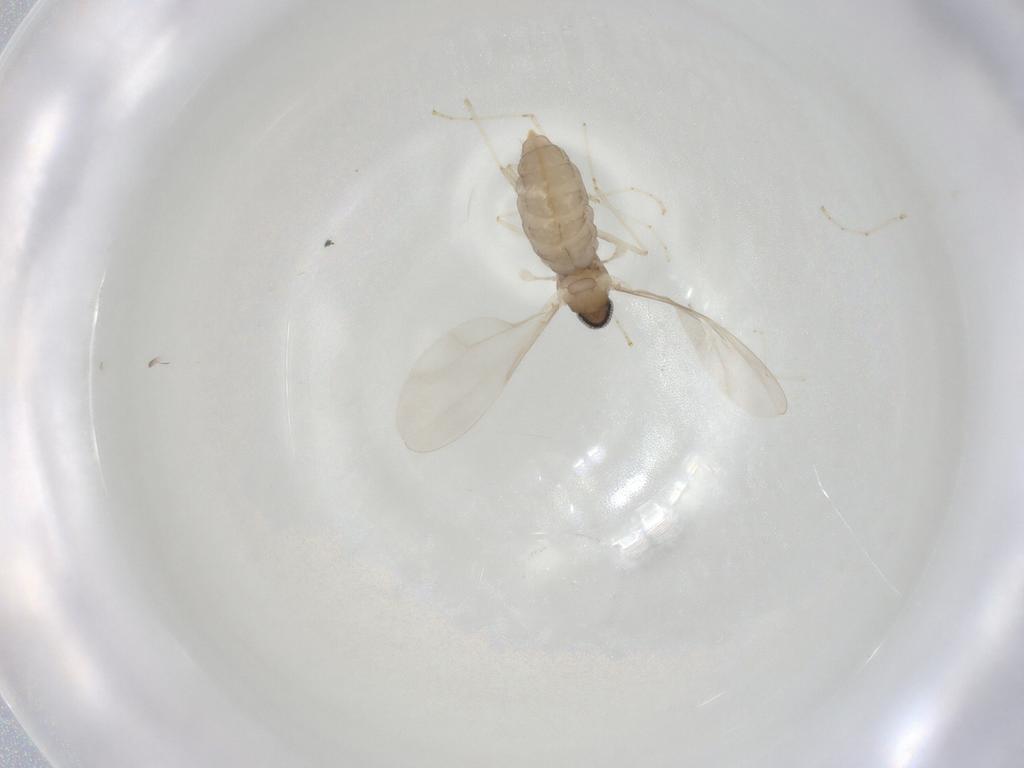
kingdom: Animalia
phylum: Arthropoda
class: Insecta
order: Diptera
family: Cecidomyiidae
